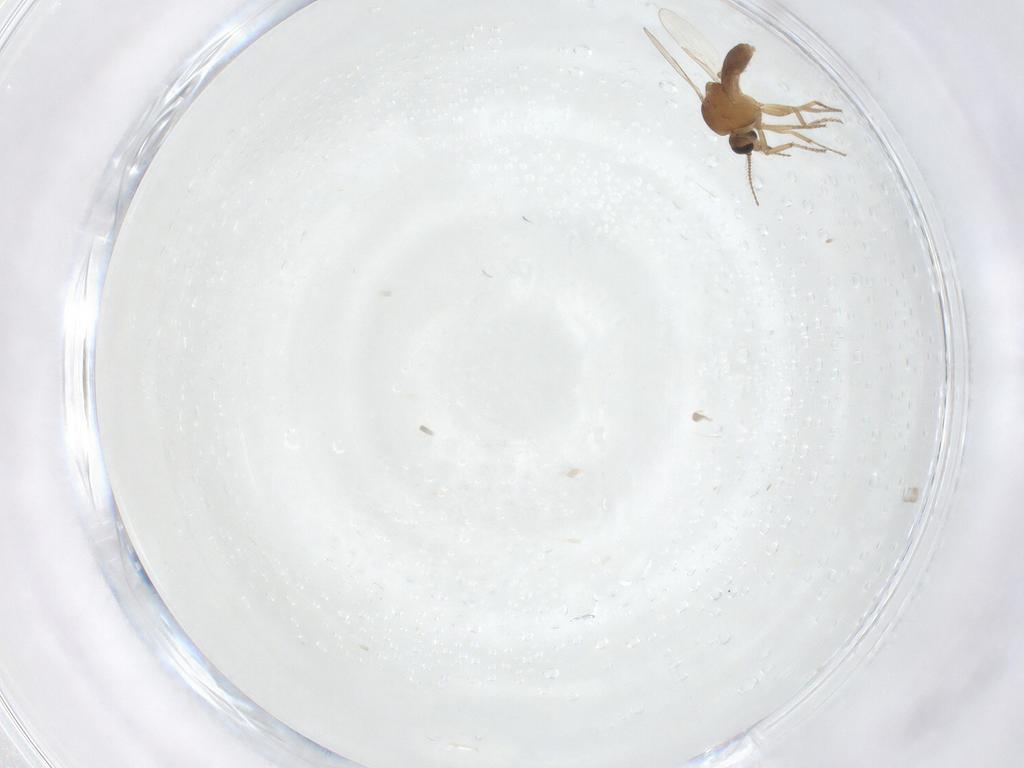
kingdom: Animalia
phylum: Arthropoda
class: Insecta
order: Diptera
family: Ceratopogonidae
